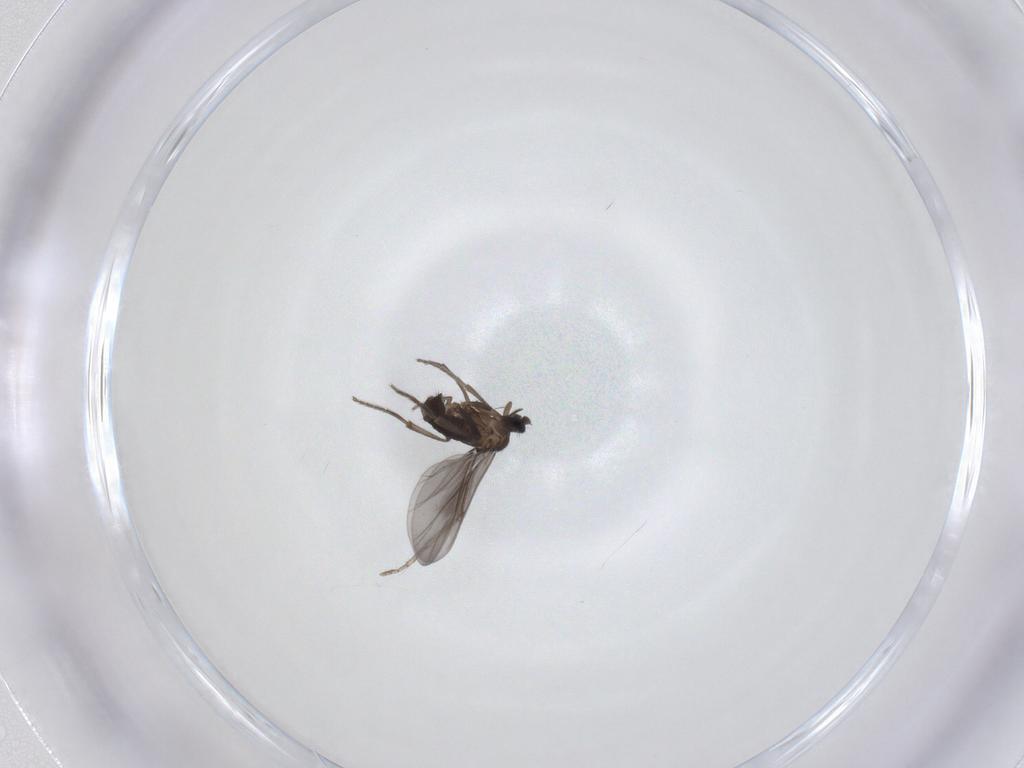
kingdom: Animalia
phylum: Arthropoda
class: Insecta
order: Diptera
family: Phoridae
